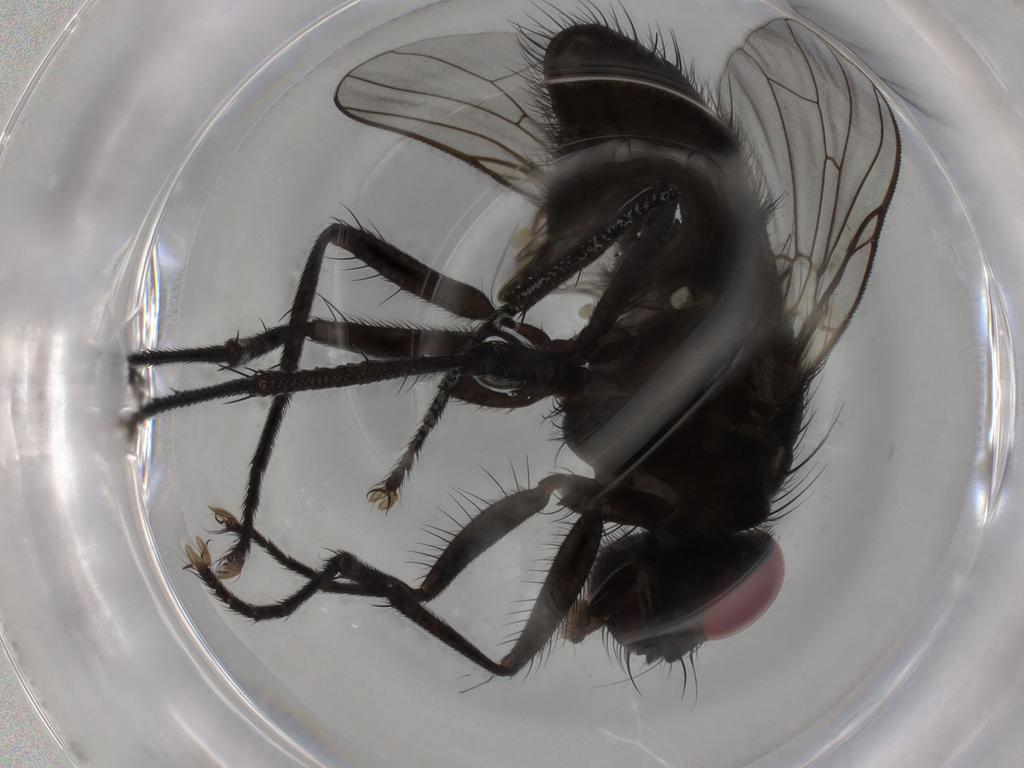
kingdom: Animalia
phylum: Arthropoda
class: Insecta
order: Diptera
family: Muscidae
